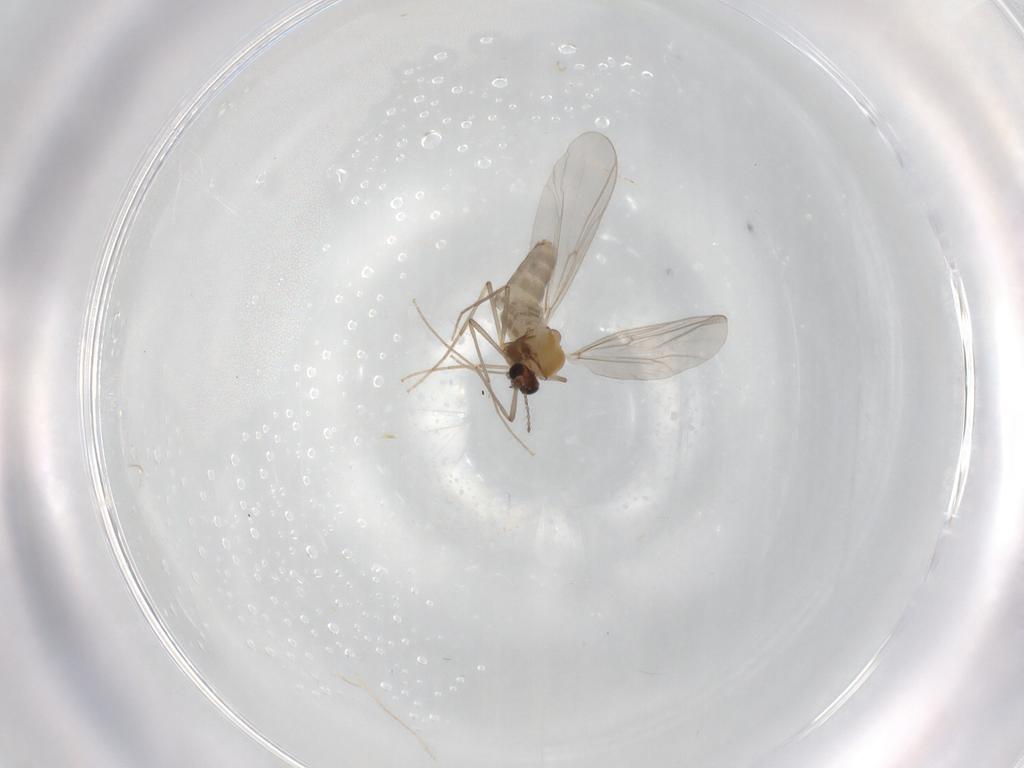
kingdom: Animalia
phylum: Arthropoda
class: Insecta
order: Diptera
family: Chironomidae
